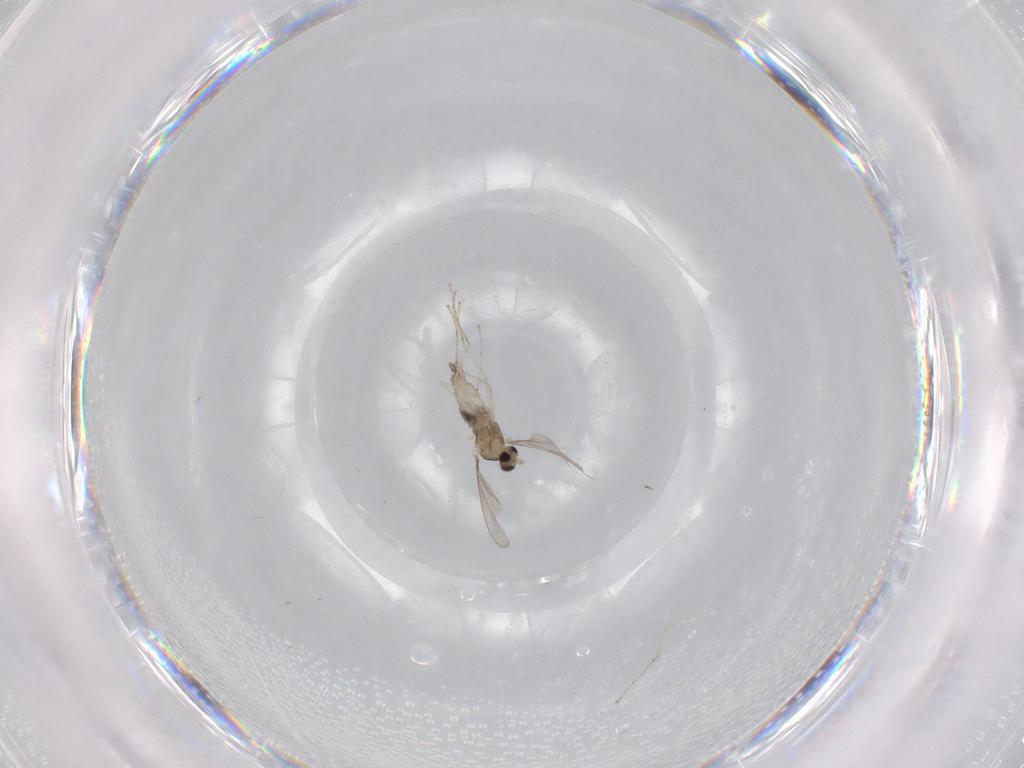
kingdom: Animalia
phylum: Arthropoda
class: Insecta
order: Diptera
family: Cecidomyiidae
